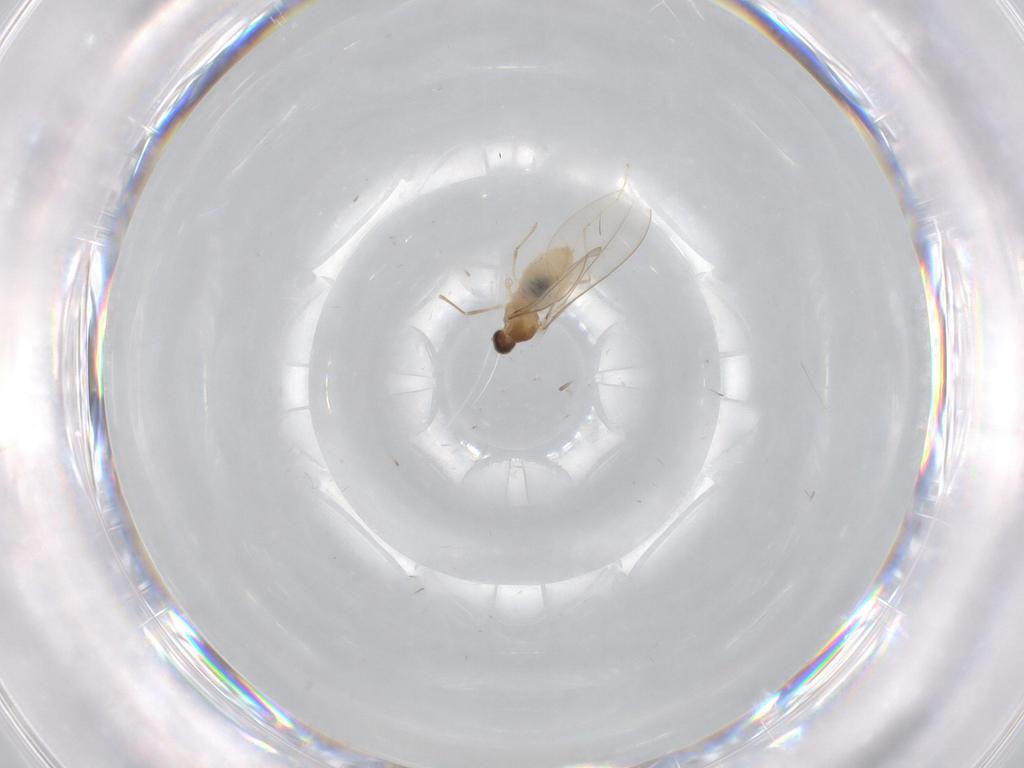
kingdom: Animalia
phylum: Arthropoda
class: Insecta
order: Diptera
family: Cecidomyiidae
